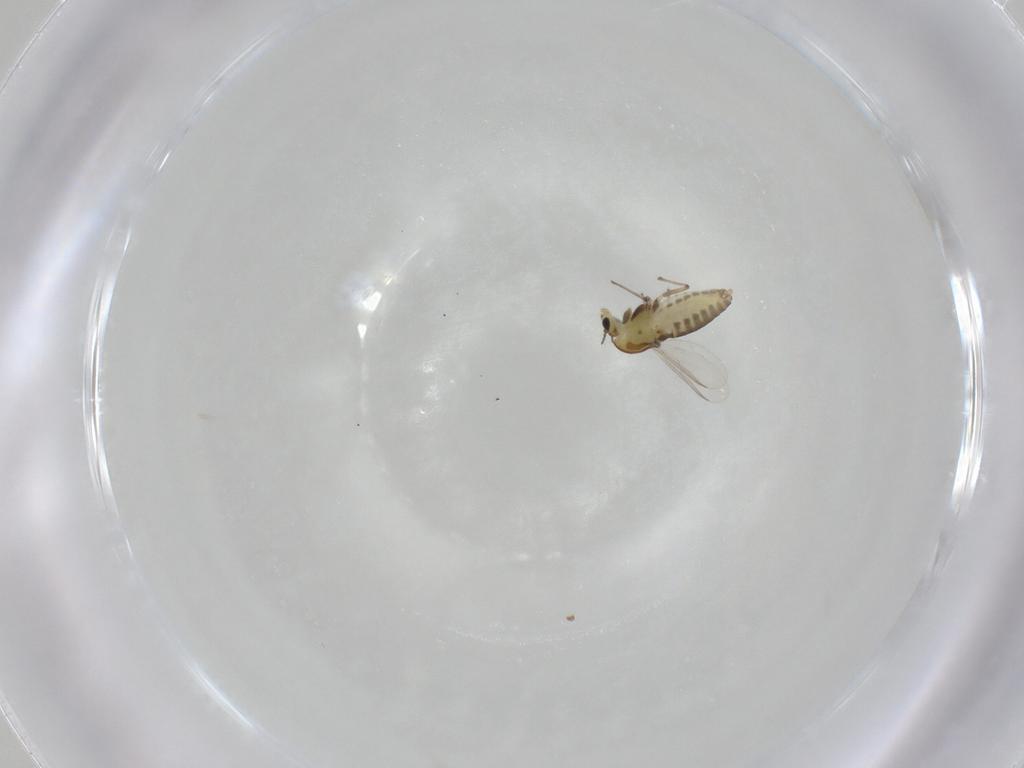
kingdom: Animalia
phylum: Arthropoda
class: Insecta
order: Diptera
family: Chironomidae
